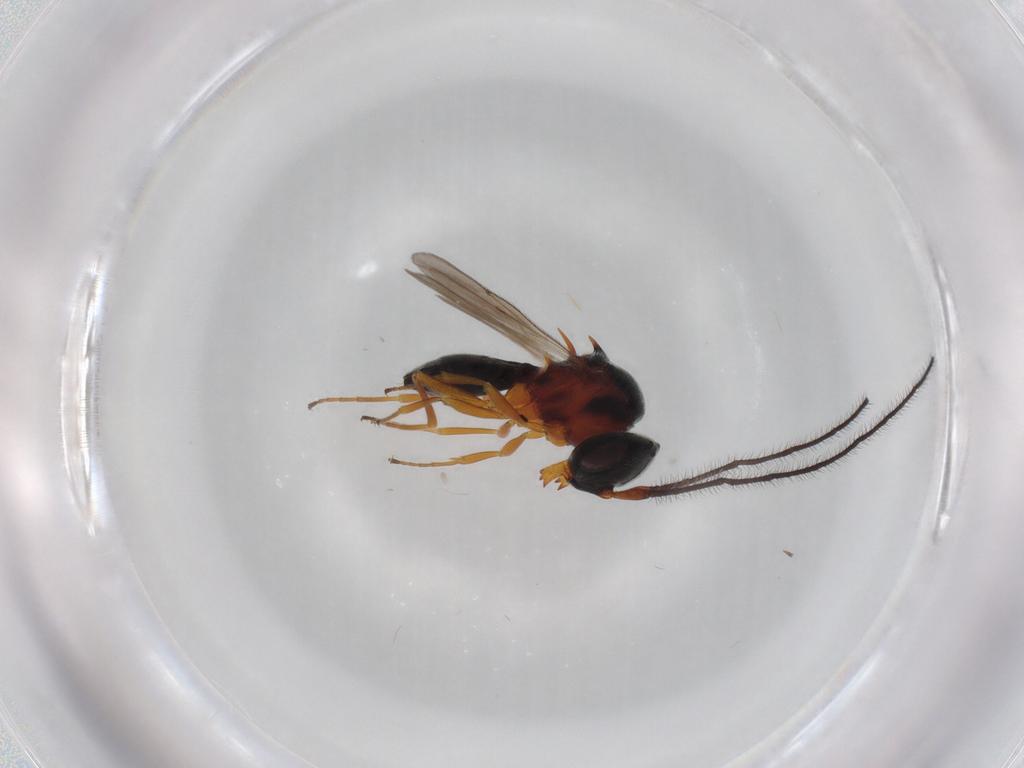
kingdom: Animalia
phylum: Arthropoda
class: Insecta
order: Hymenoptera
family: Scelionidae
